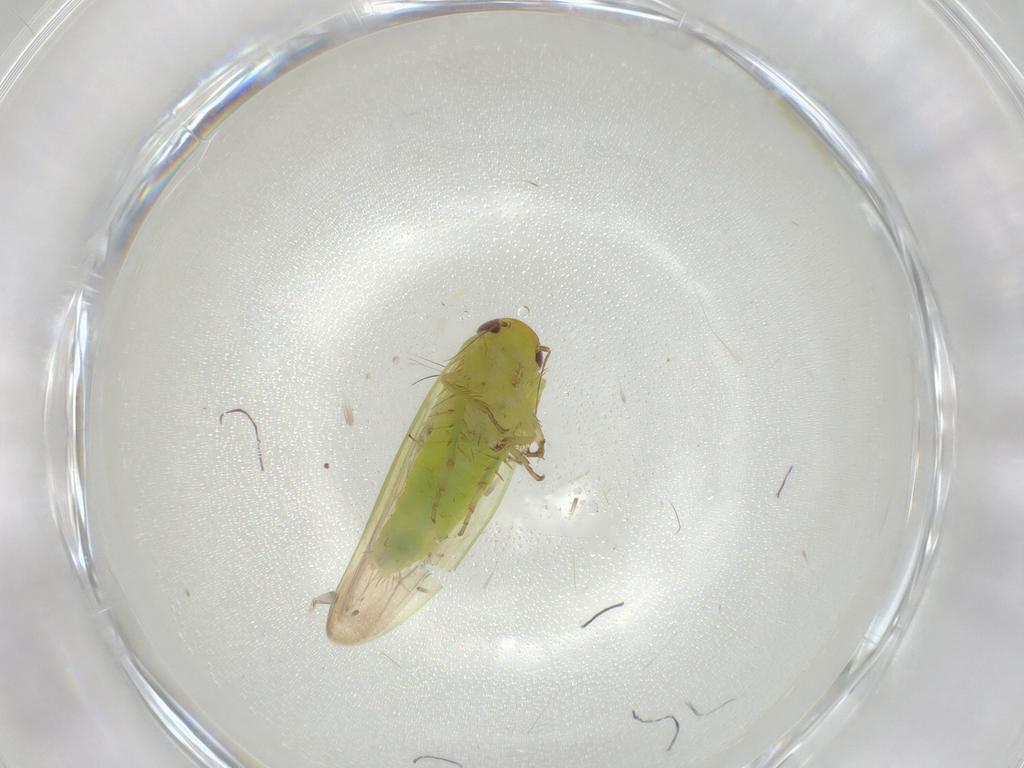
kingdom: Animalia
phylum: Arthropoda
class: Insecta
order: Hemiptera
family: Cicadellidae
